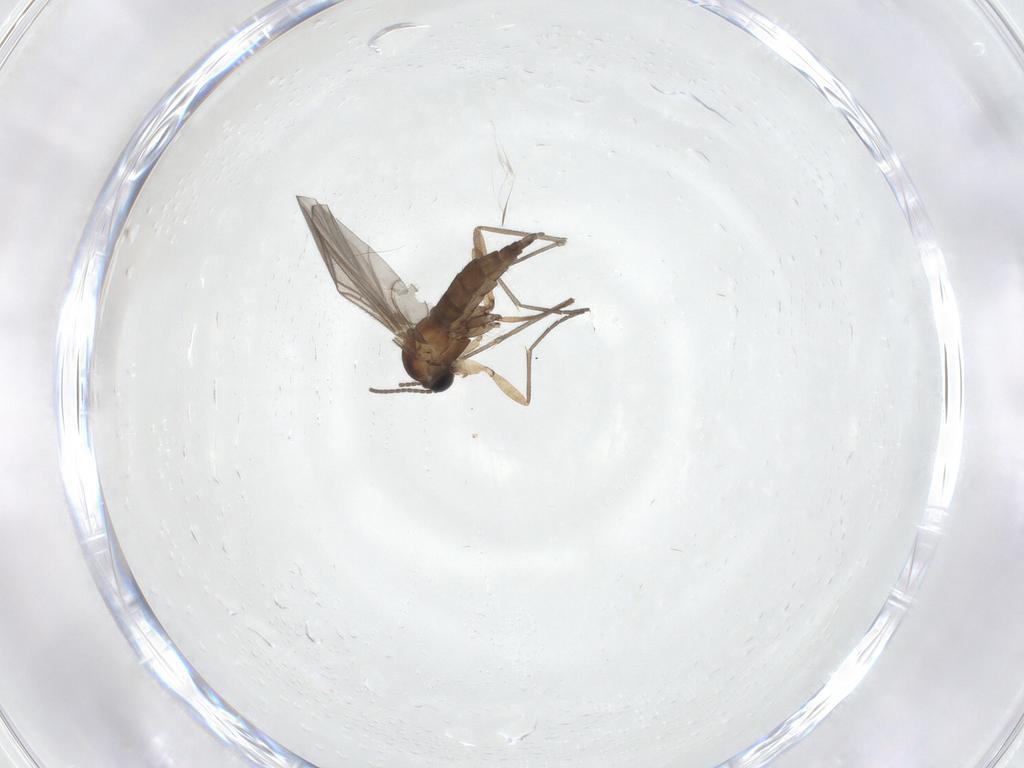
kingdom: Animalia
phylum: Arthropoda
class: Insecta
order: Diptera
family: Sciaridae
